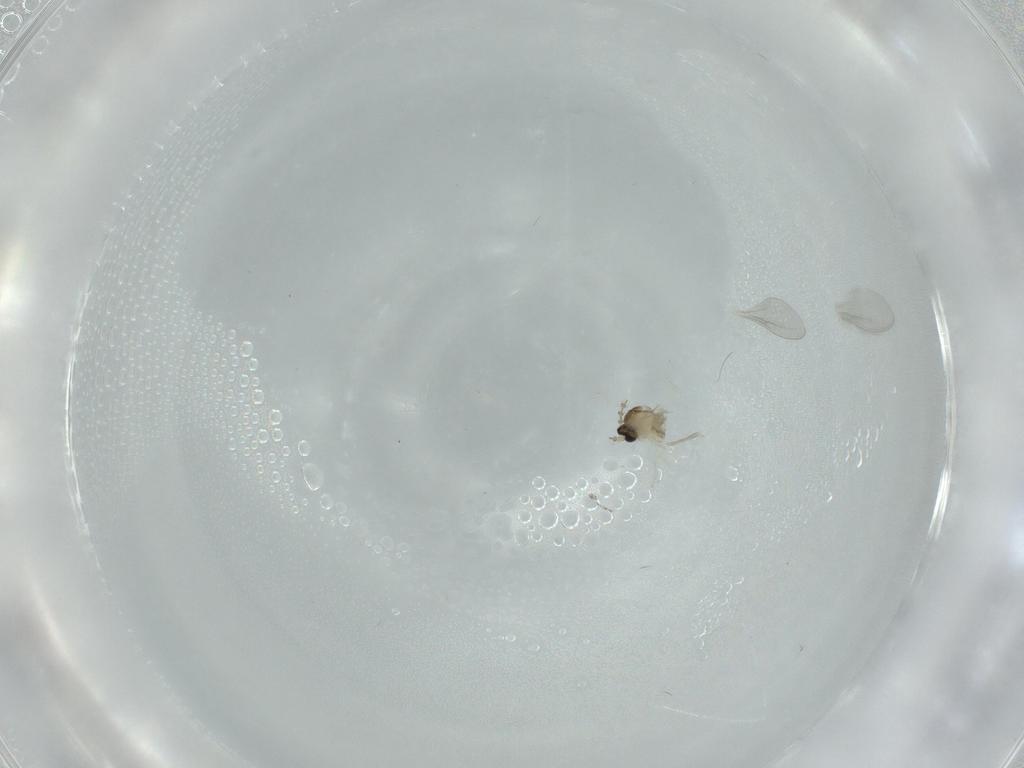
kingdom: Animalia
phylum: Arthropoda
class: Insecta
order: Diptera
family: Cecidomyiidae
